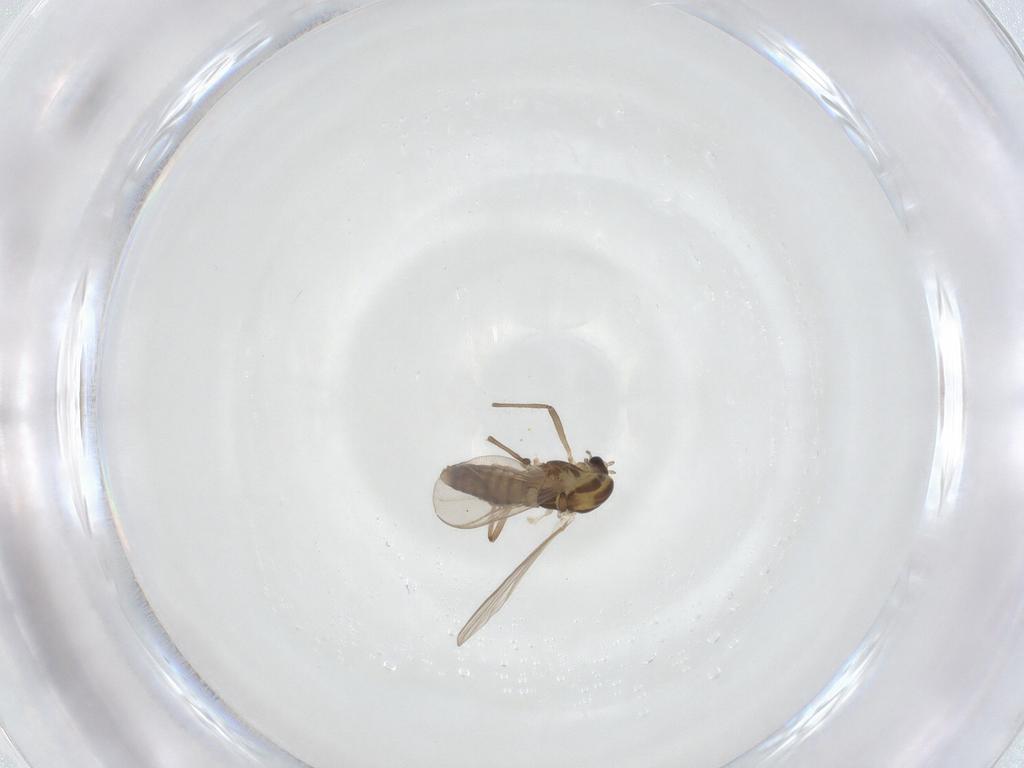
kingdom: Animalia
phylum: Arthropoda
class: Insecta
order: Diptera
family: Chironomidae
